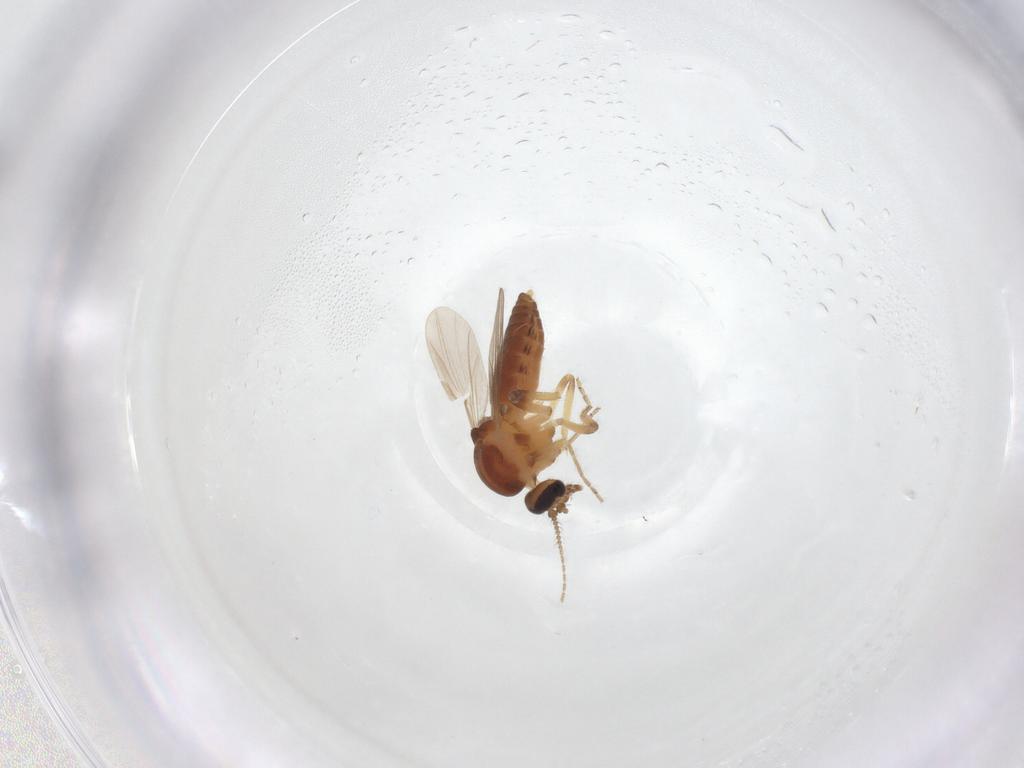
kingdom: Animalia
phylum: Arthropoda
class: Insecta
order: Diptera
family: Ceratopogonidae
